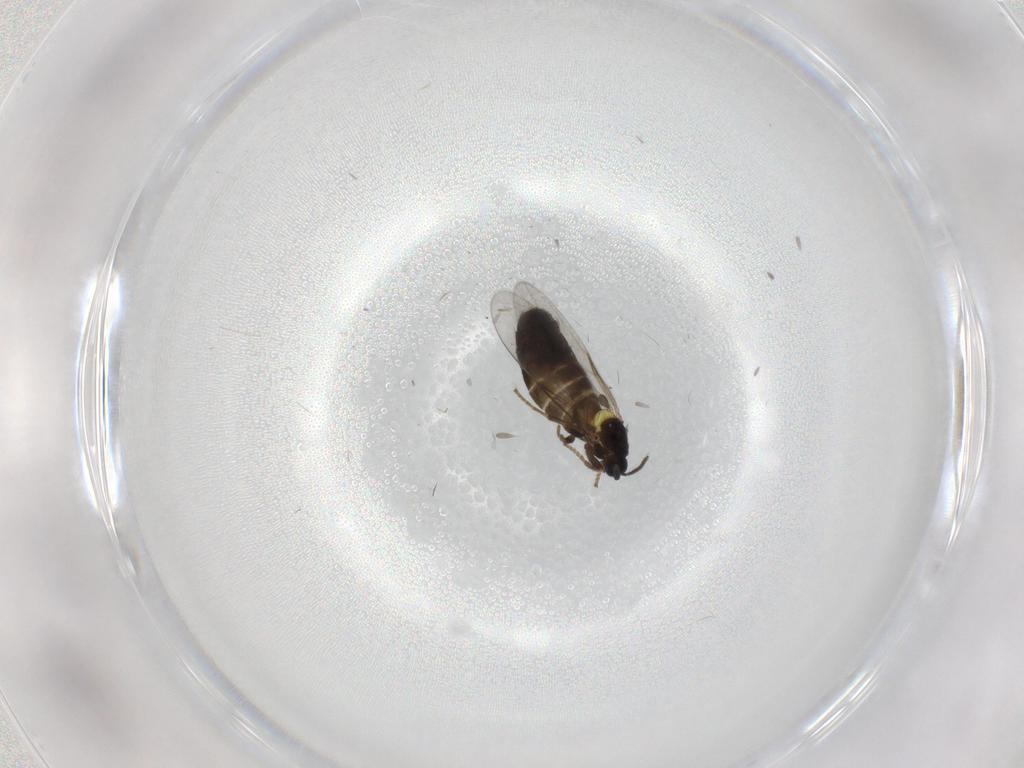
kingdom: Animalia
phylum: Arthropoda
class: Insecta
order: Diptera
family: Scatopsidae
